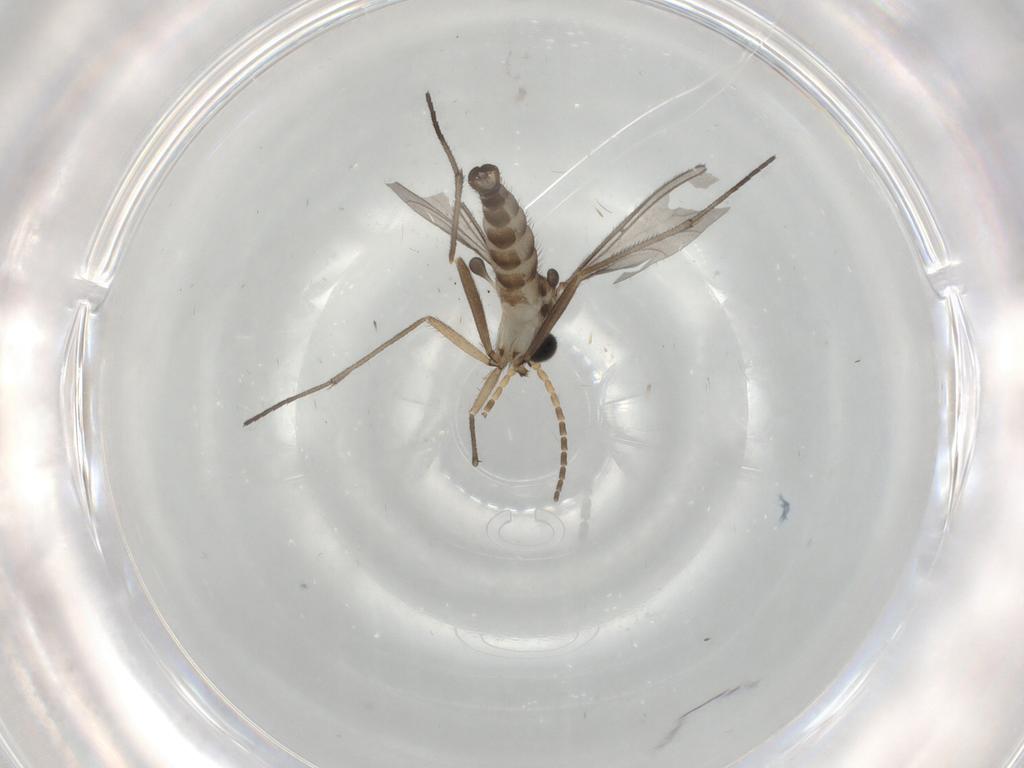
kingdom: Animalia
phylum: Arthropoda
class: Insecta
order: Diptera
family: Sciaridae
